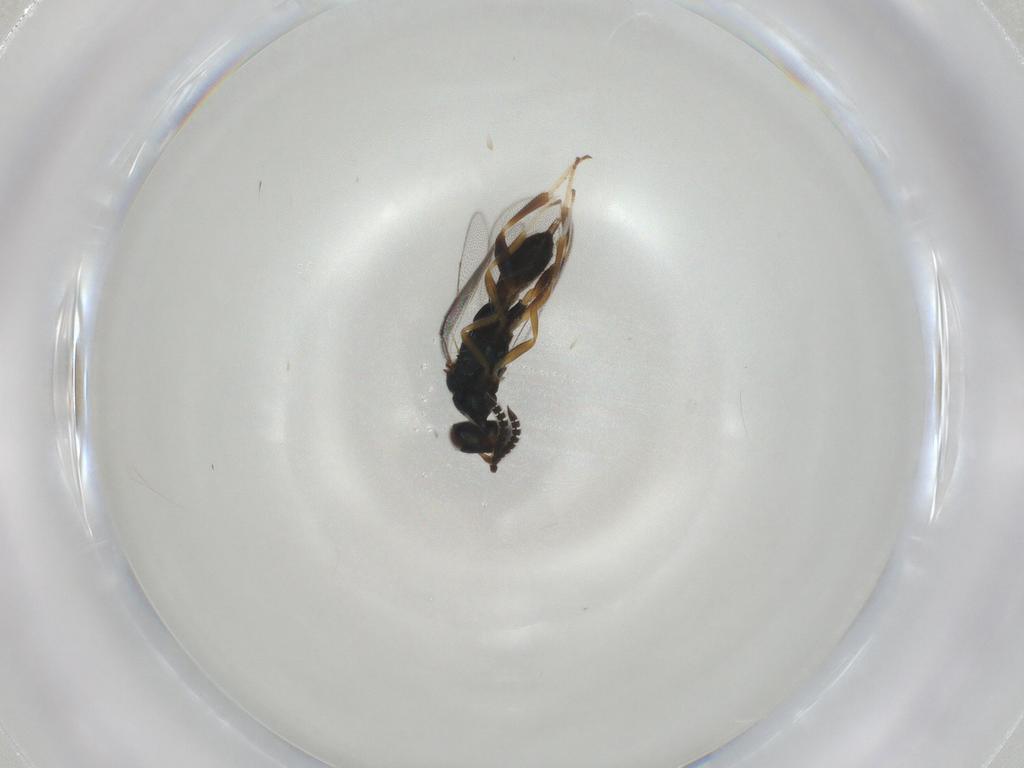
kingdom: Animalia
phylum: Arthropoda
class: Insecta
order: Hymenoptera
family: Cleonyminae
